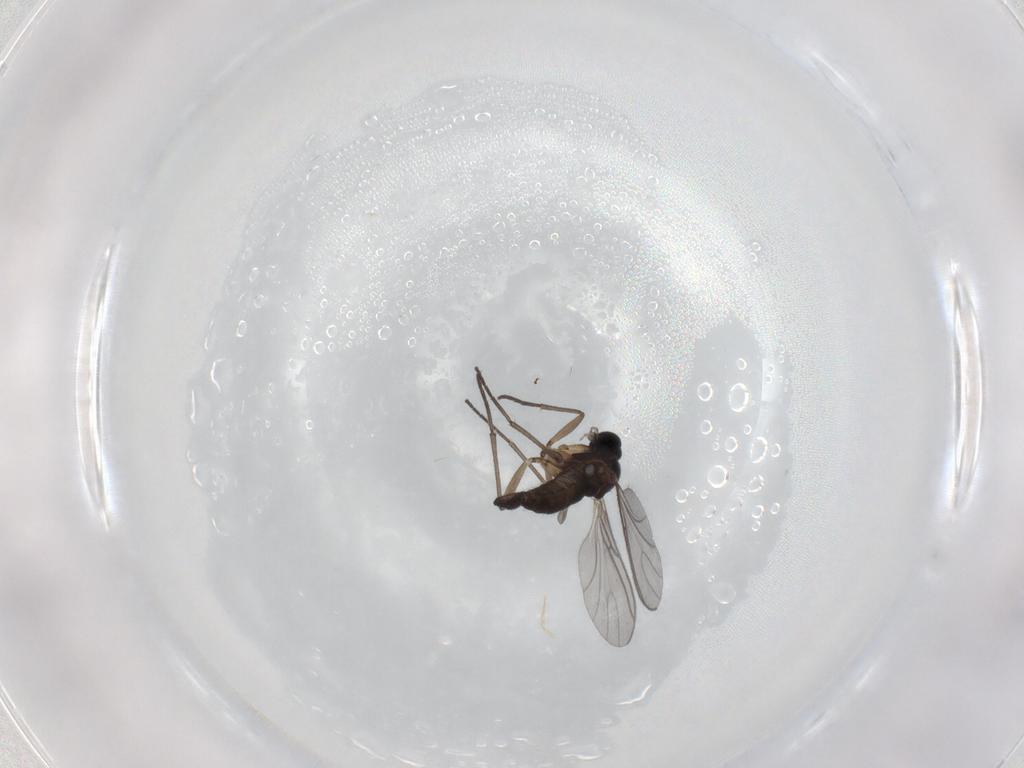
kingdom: Animalia
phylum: Arthropoda
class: Insecta
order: Diptera
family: Sciaridae
